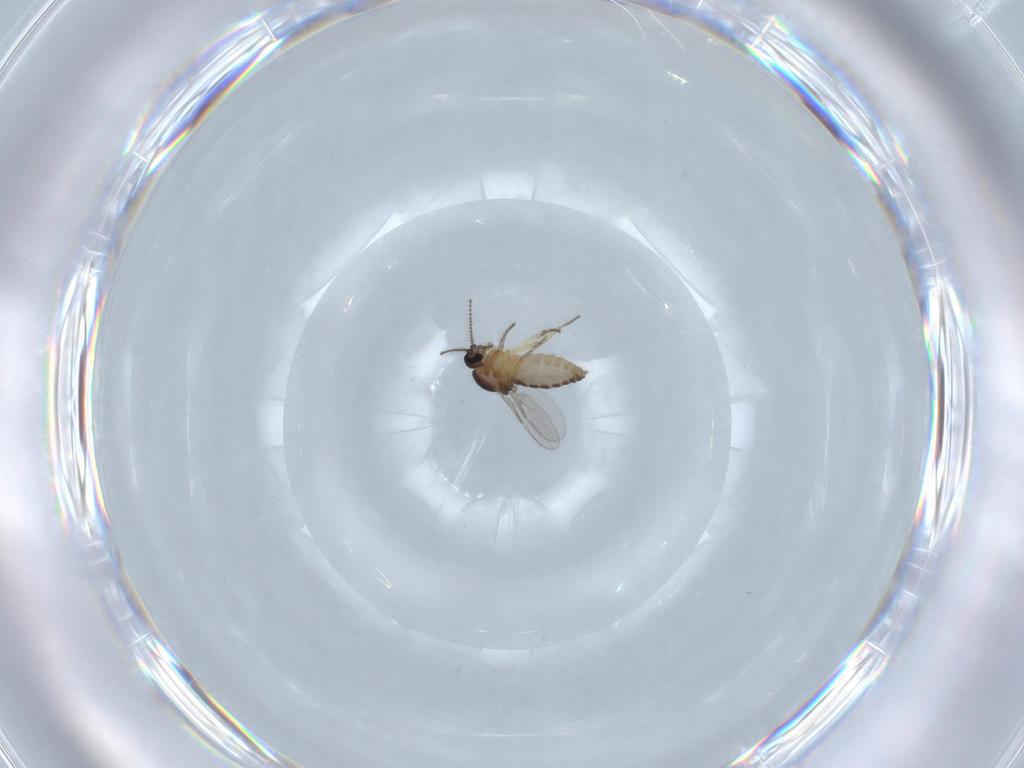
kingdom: Animalia
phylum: Arthropoda
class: Insecta
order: Diptera
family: Ceratopogonidae
